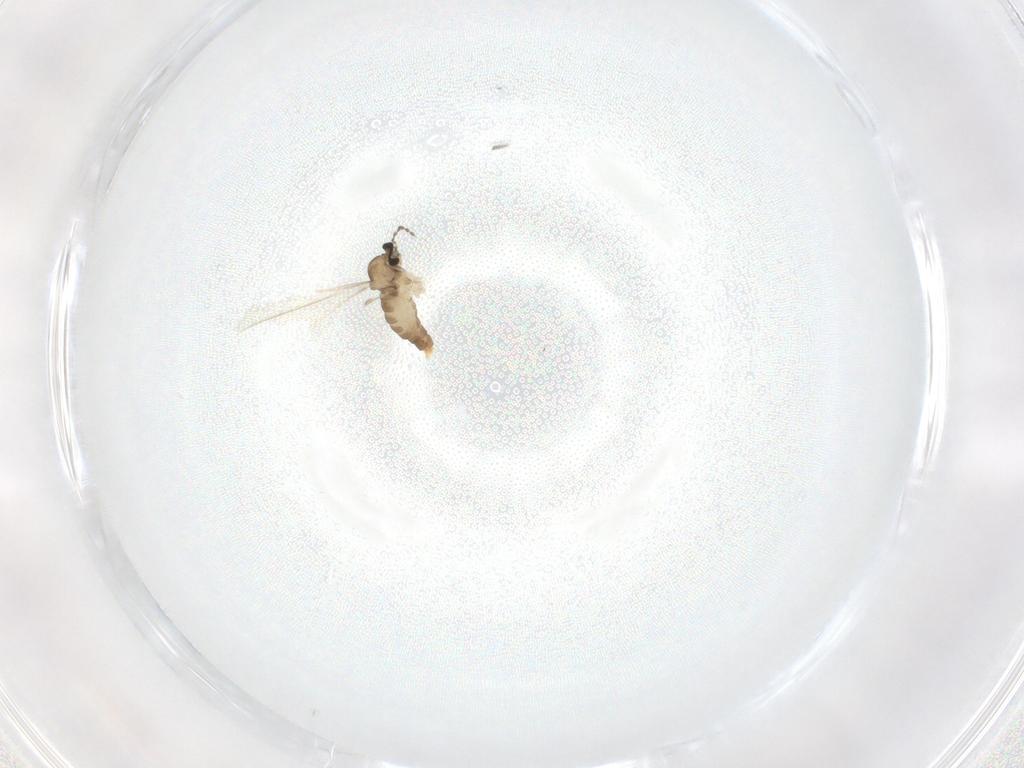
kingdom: Animalia
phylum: Arthropoda
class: Insecta
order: Diptera
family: Cecidomyiidae
